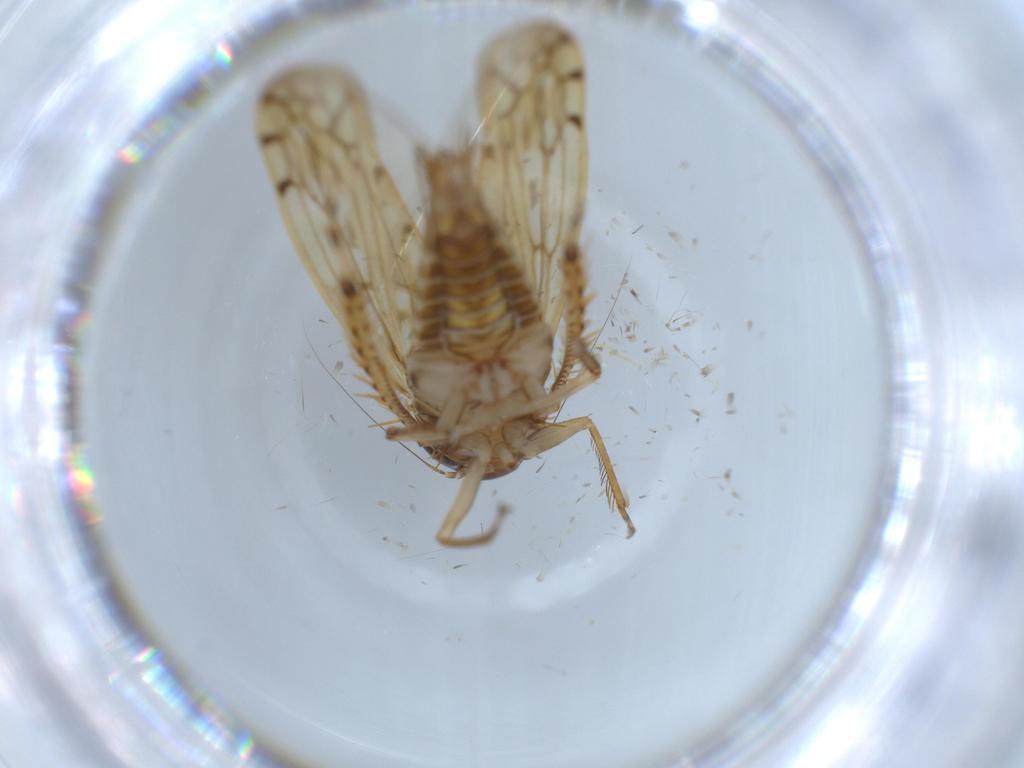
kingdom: Animalia
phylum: Arthropoda
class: Insecta
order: Hemiptera
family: Cicadellidae
